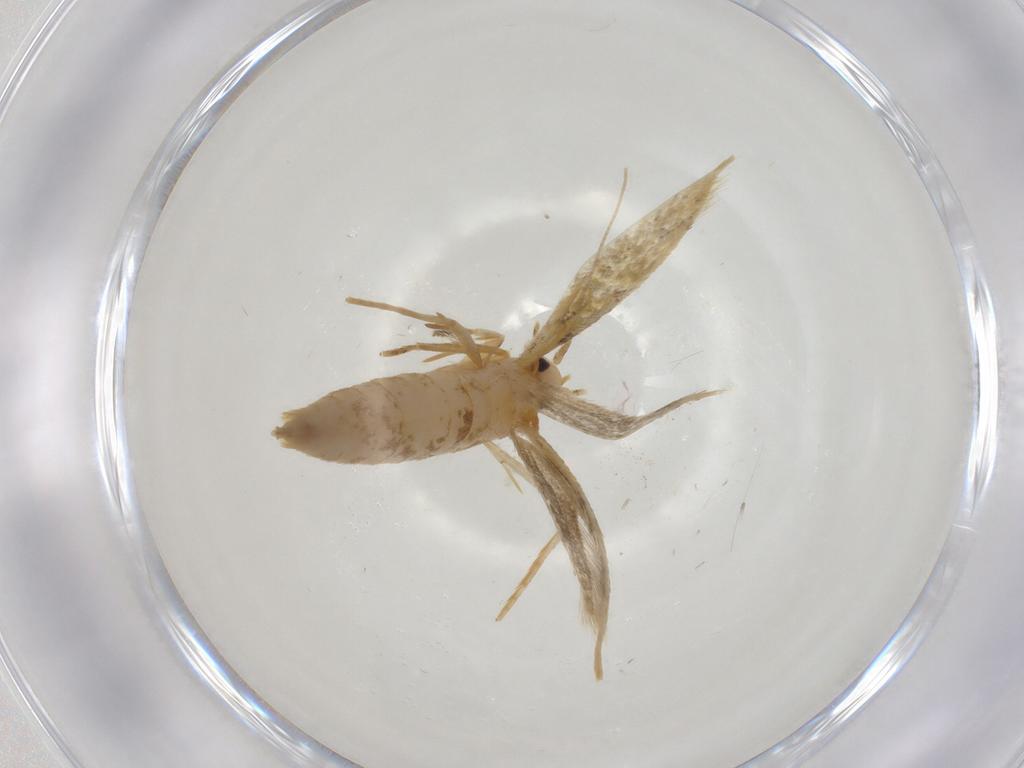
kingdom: Animalia
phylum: Arthropoda
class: Insecta
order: Lepidoptera
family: Tineidae
